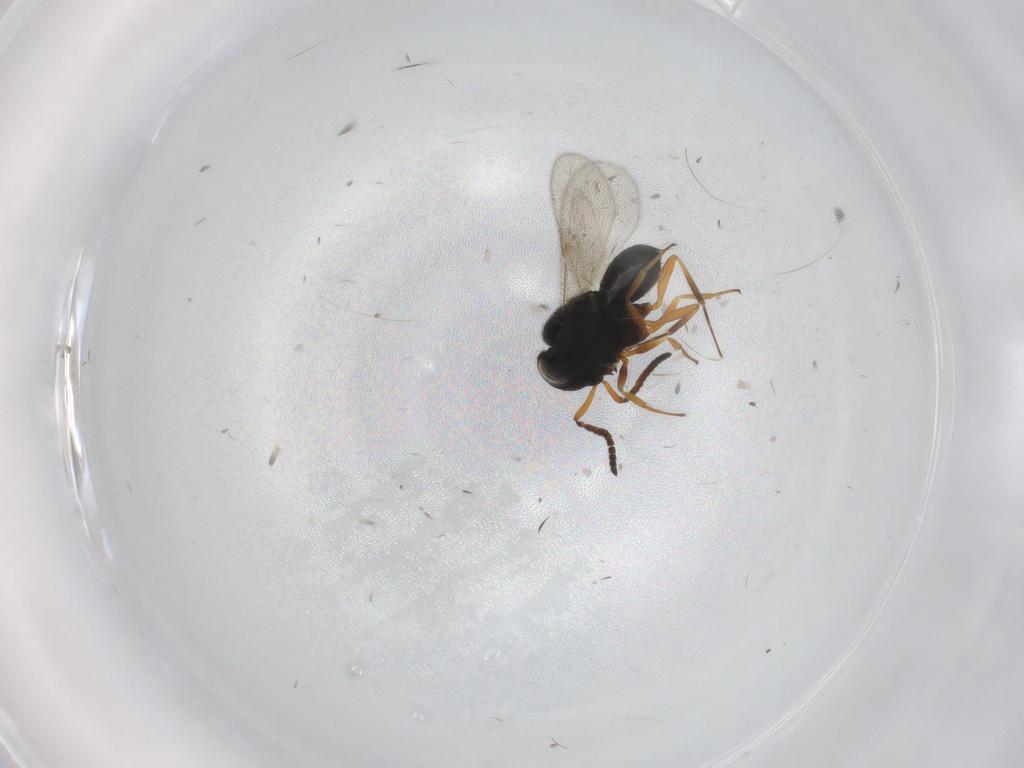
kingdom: Animalia
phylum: Arthropoda
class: Insecta
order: Hymenoptera
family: Scelionidae
